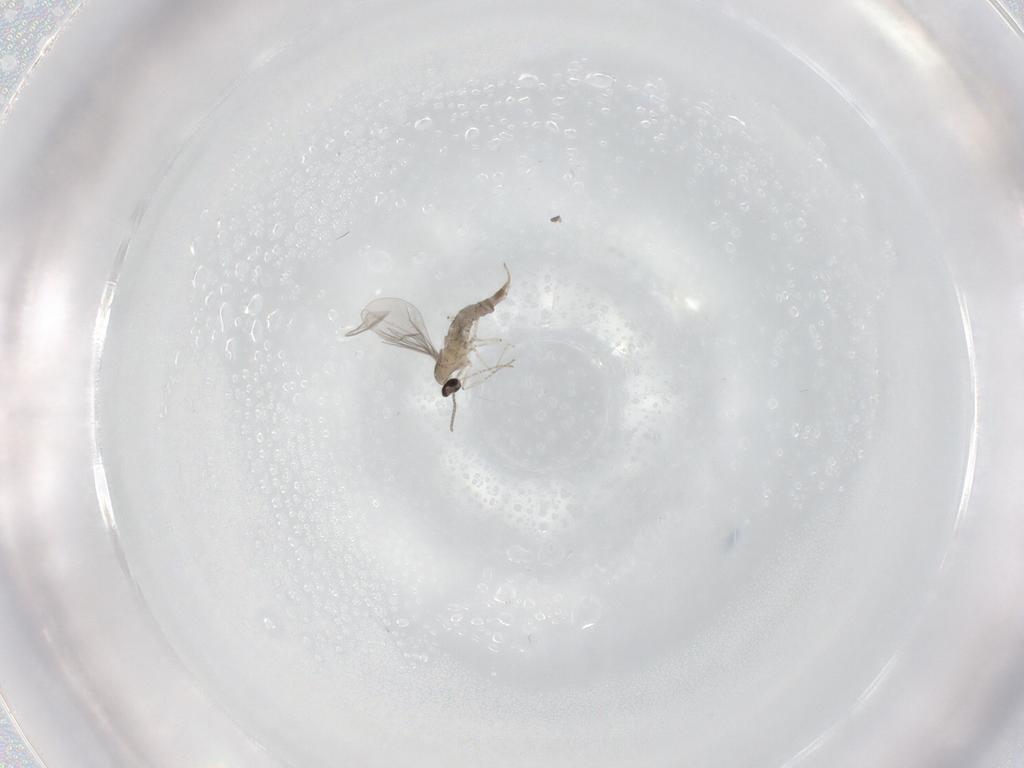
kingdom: Animalia
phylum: Arthropoda
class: Insecta
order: Diptera
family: Cecidomyiidae
